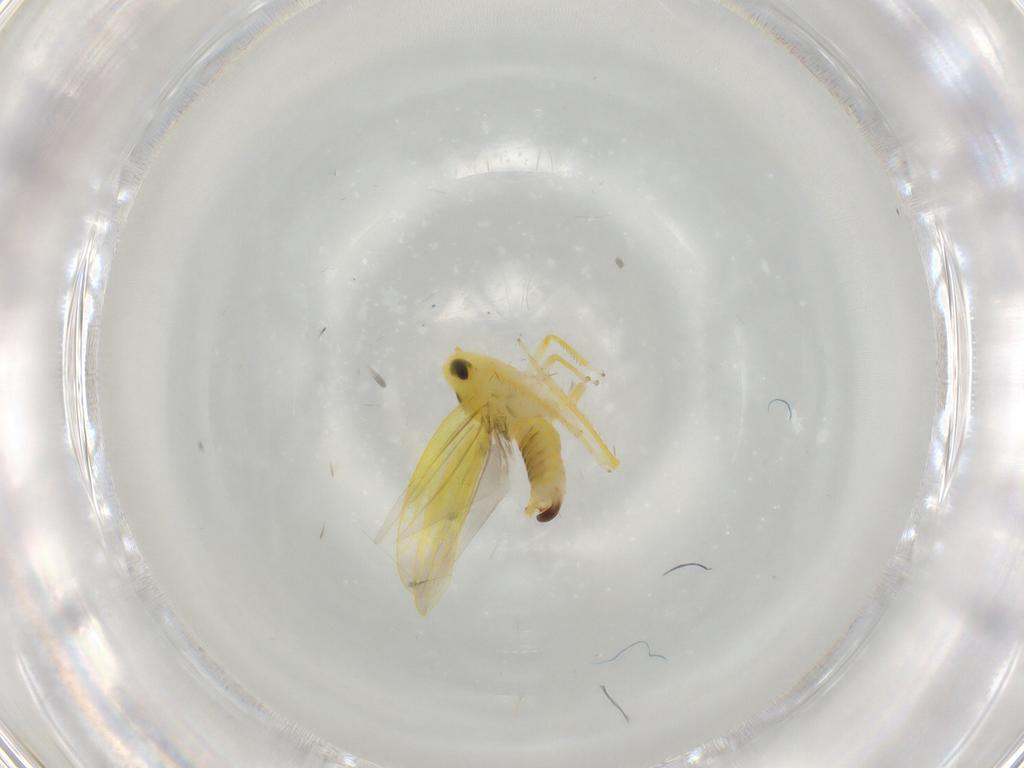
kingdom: Animalia
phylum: Arthropoda
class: Insecta
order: Hemiptera
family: Cicadellidae
